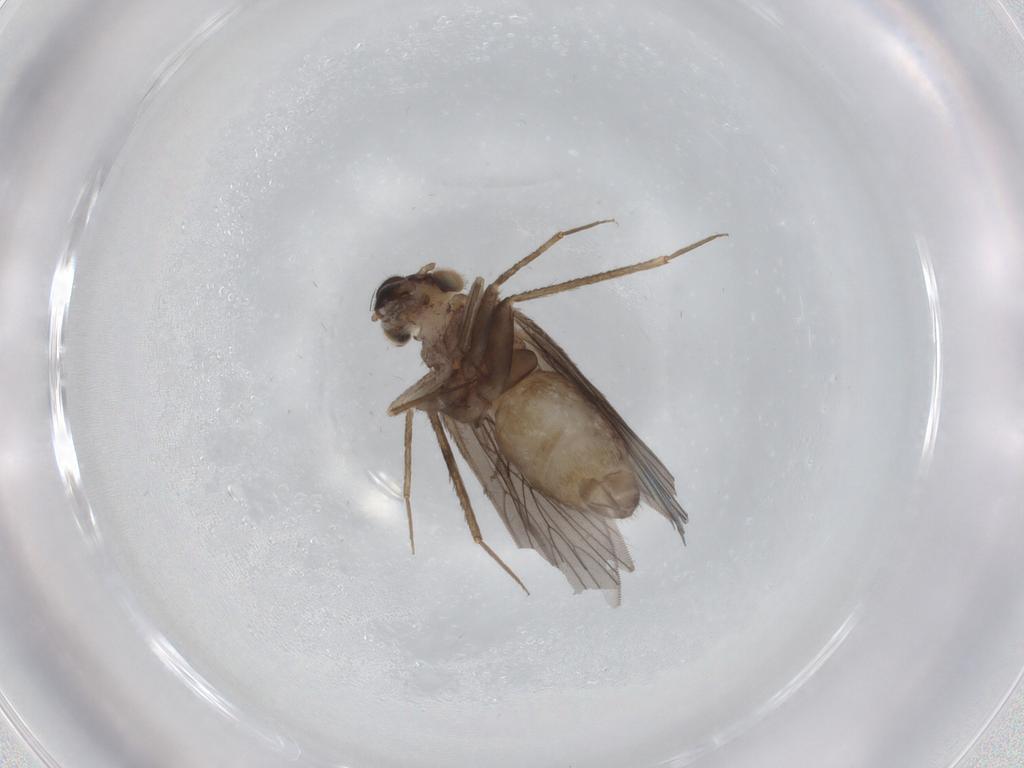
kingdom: Animalia
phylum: Arthropoda
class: Insecta
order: Psocodea
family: Lepidopsocidae
